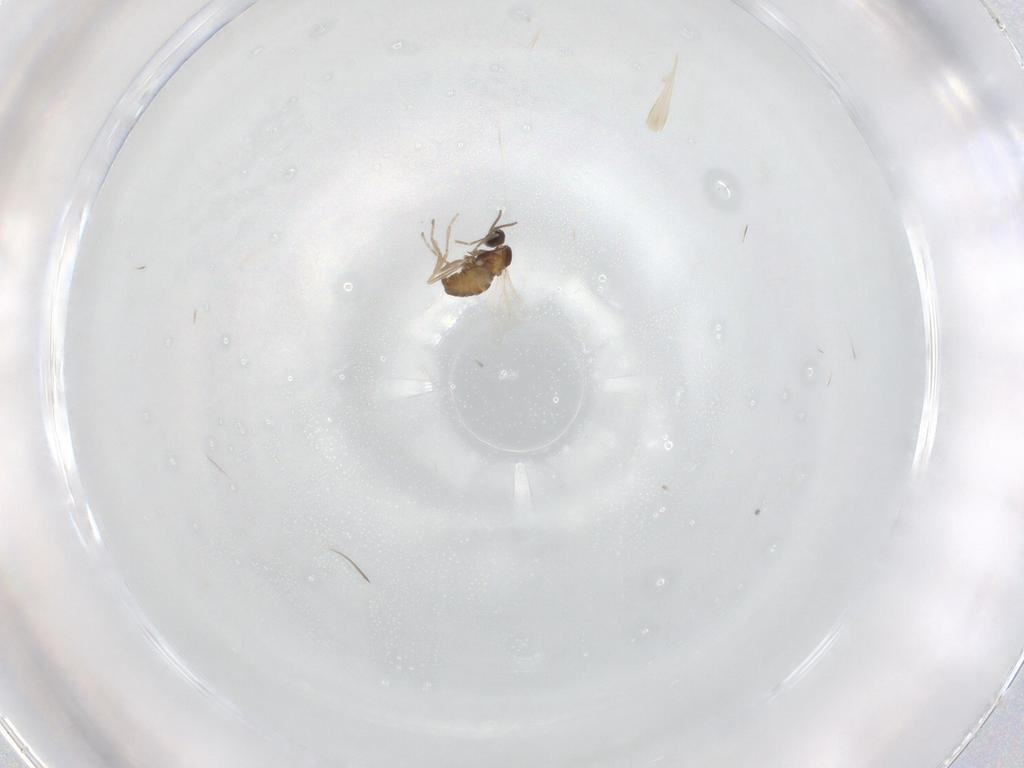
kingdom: Animalia
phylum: Arthropoda
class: Insecta
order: Diptera
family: Cecidomyiidae
